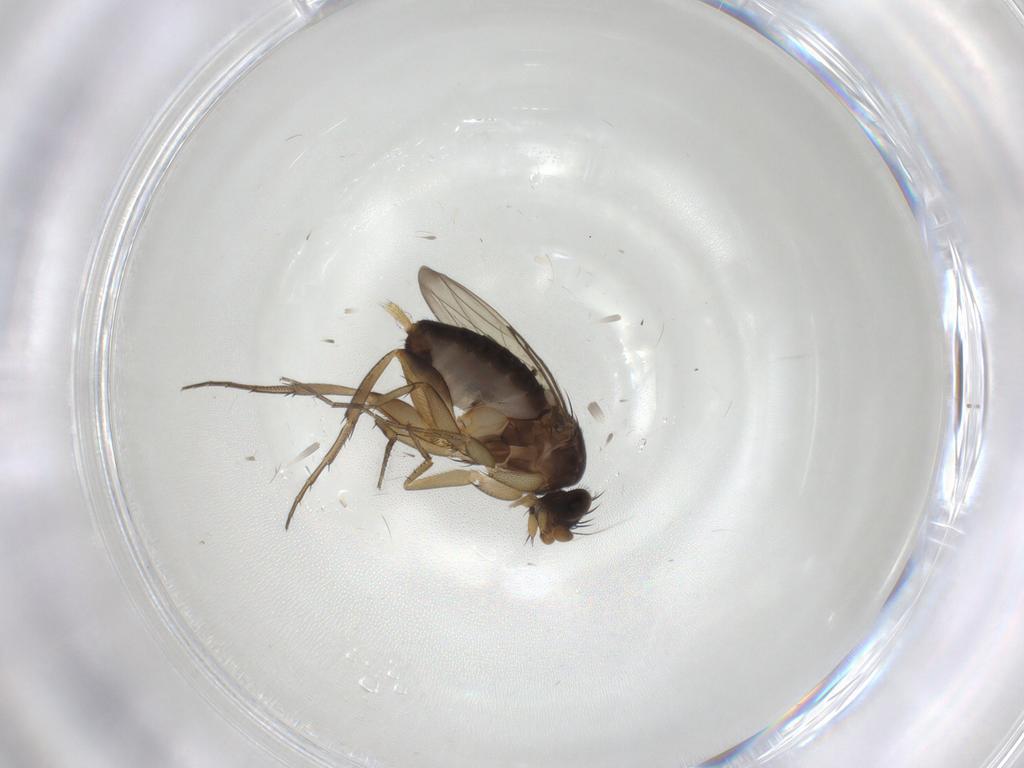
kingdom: Animalia
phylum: Arthropoda
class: Insecta
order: Diptera
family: Phoridae
